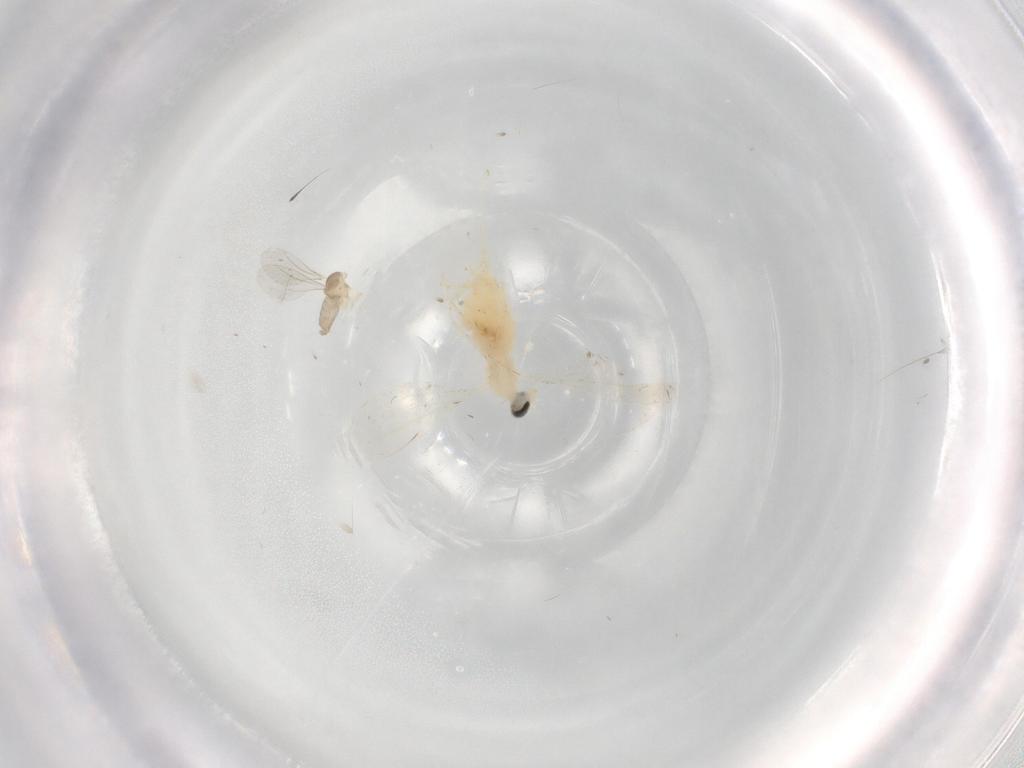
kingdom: Animalia
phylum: Arthropoda
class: Insecta
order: Diptera
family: Cecidomyiidae
